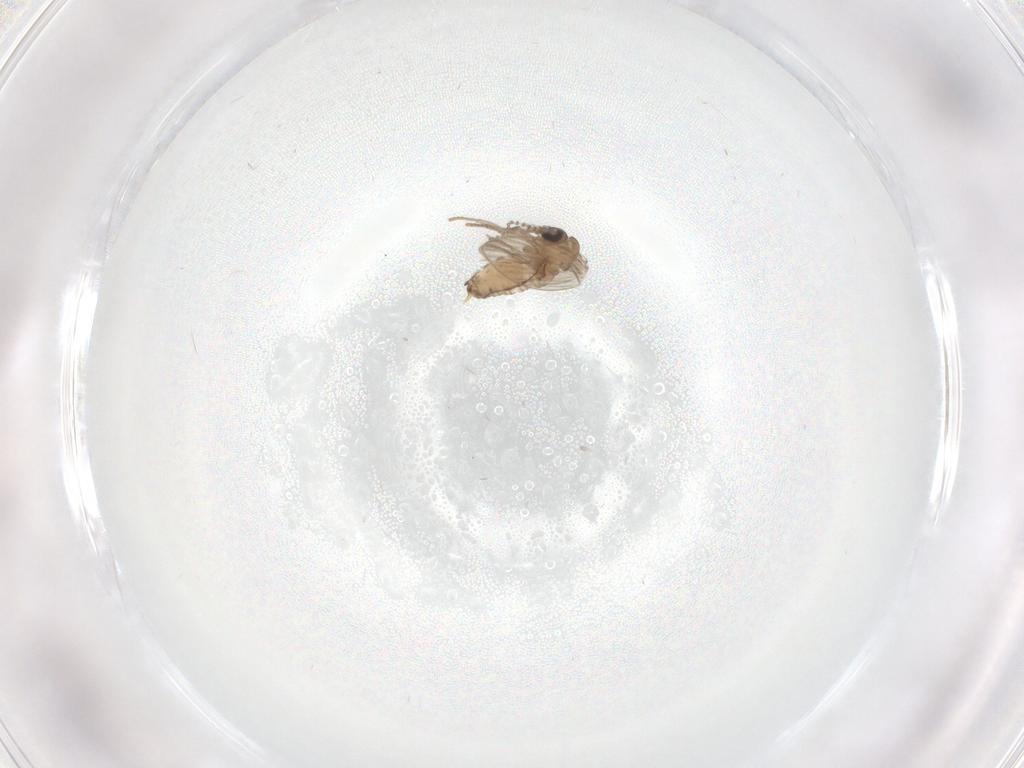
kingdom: Animalia
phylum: Arthropoda
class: Insecta
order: Diptera
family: Psychodidae
